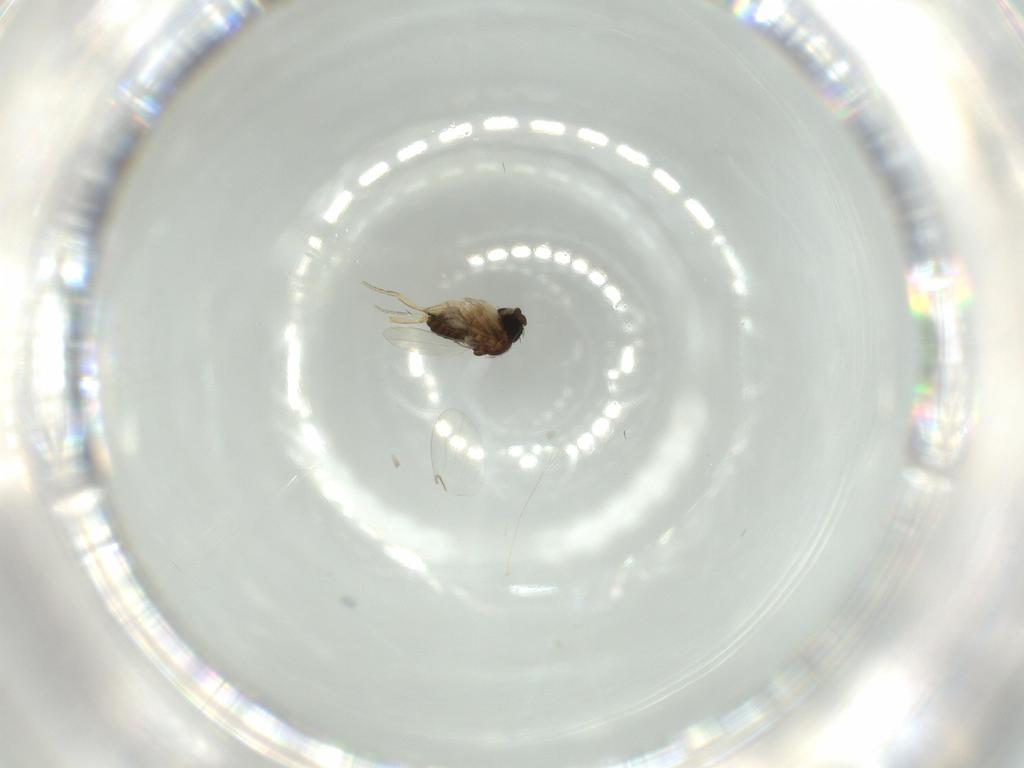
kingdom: Animalia
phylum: Arthropoda
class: Insecta
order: Diptera
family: Phoridae
